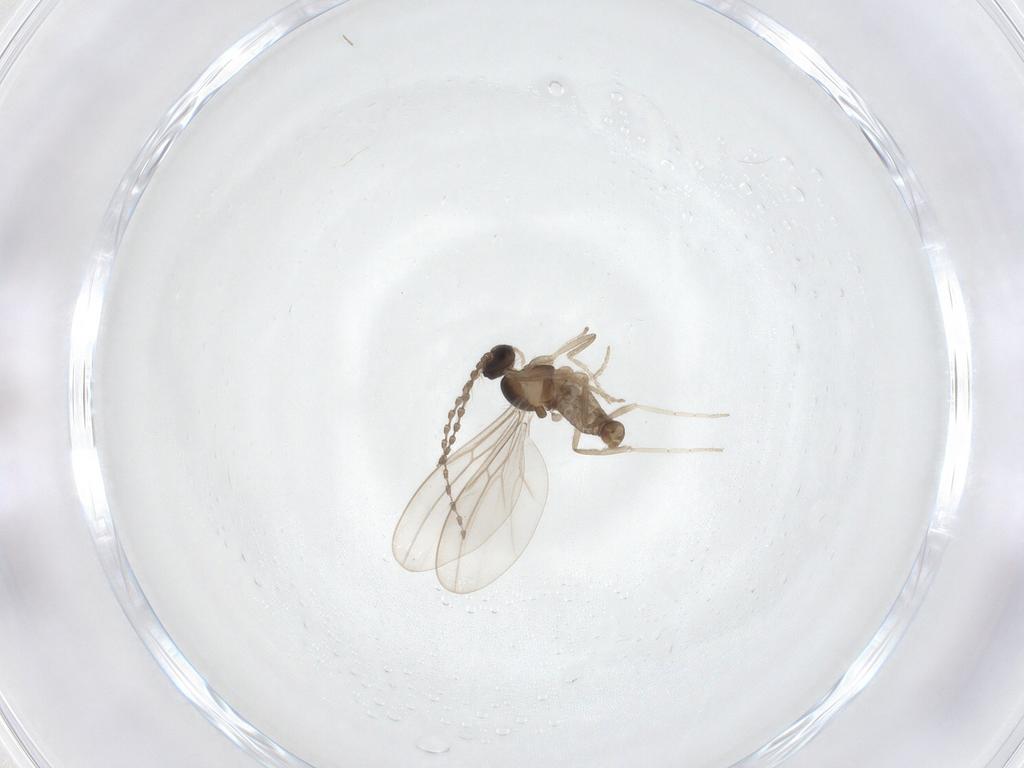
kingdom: Animalia
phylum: Arthropoda
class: Insecta
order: Diptera
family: Cecidomyiidae
